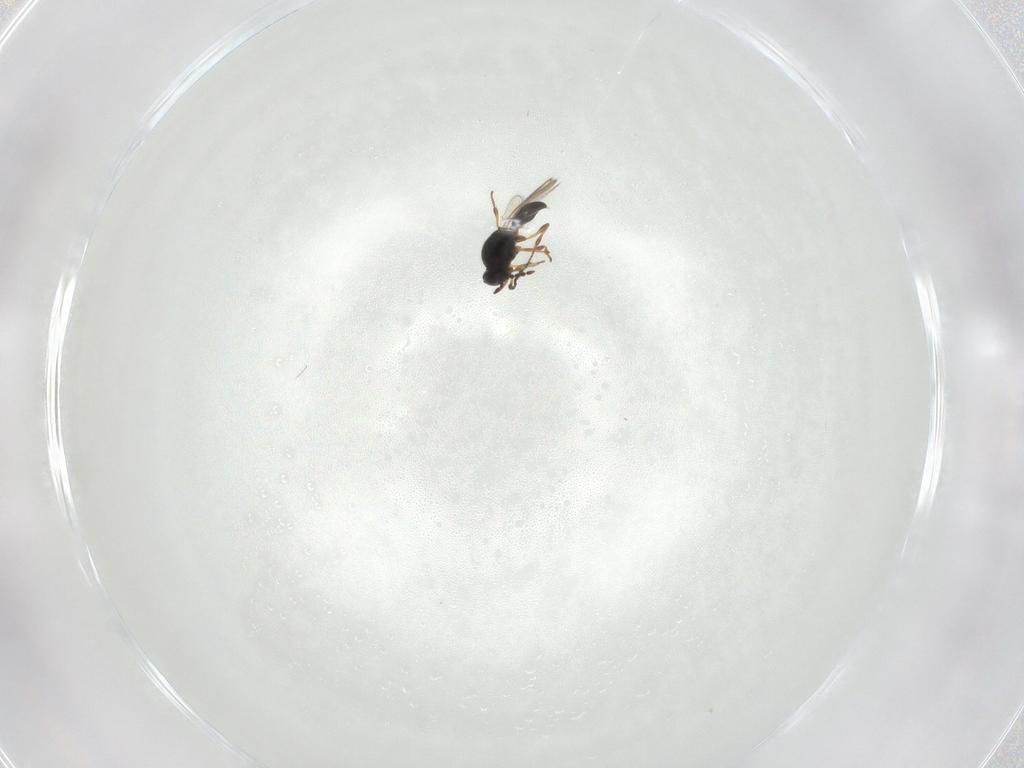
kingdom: Animalia
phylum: Arthropoda
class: Insecta
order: Hymenoptera
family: Platygastridae
